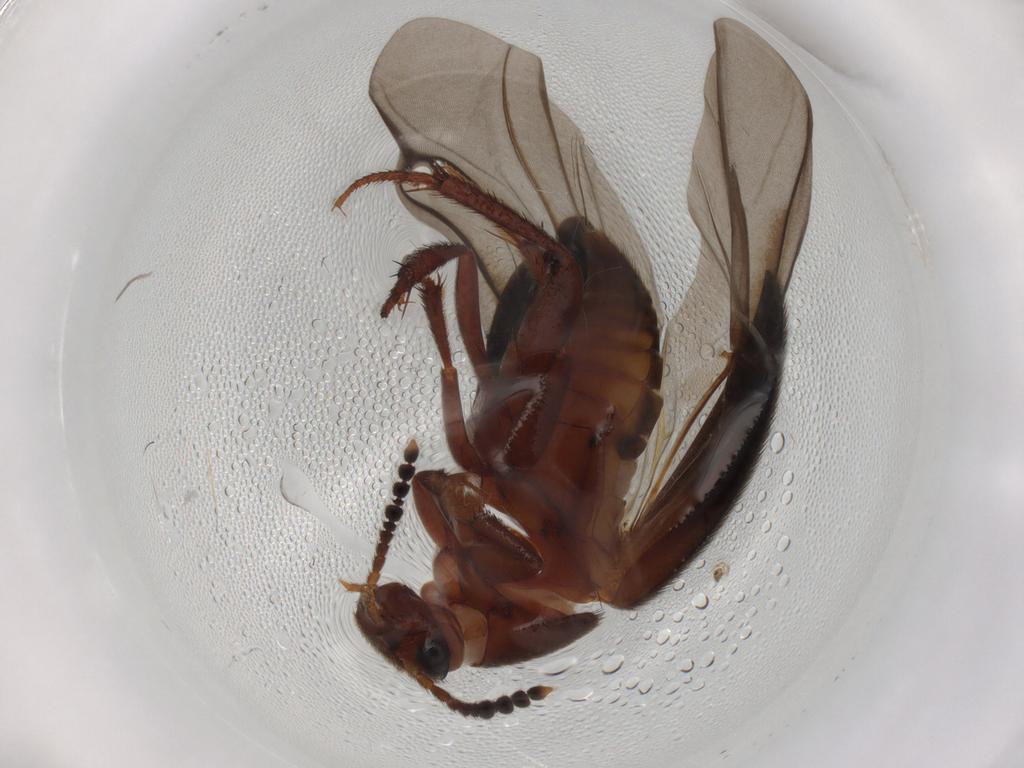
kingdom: Animalia
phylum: Arthropoda
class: Insecta
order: Coleoptera
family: Leiodidae
